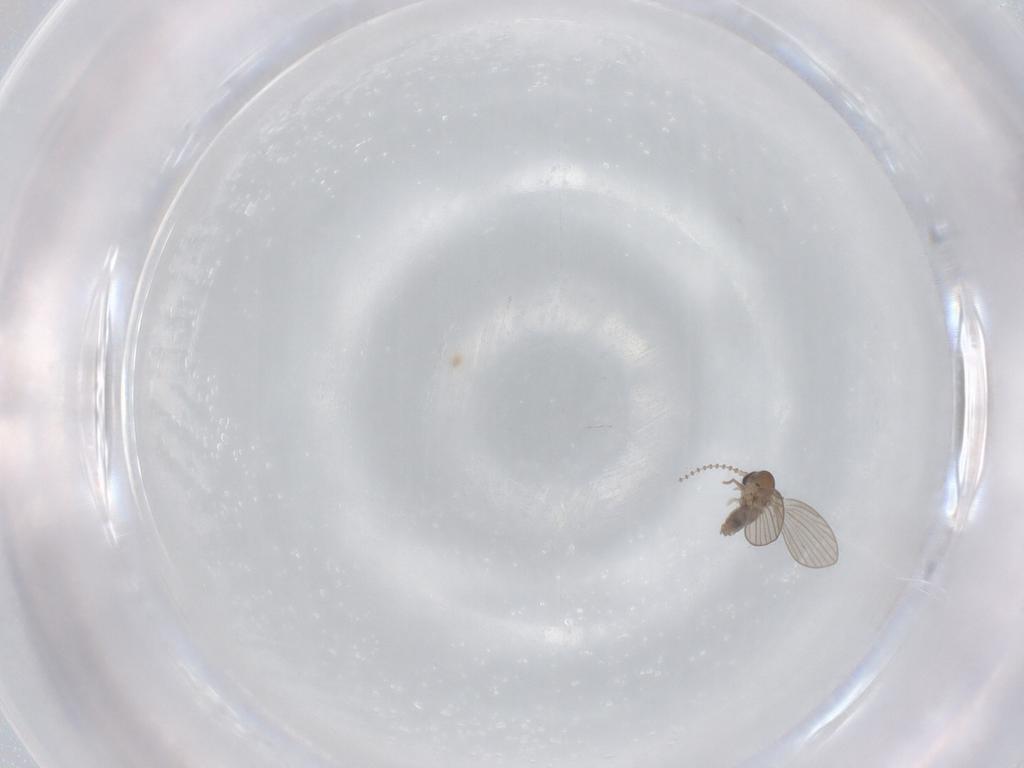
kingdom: Animalia
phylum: Arthropoda
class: Insecta
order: Diptera
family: Psychodidae
